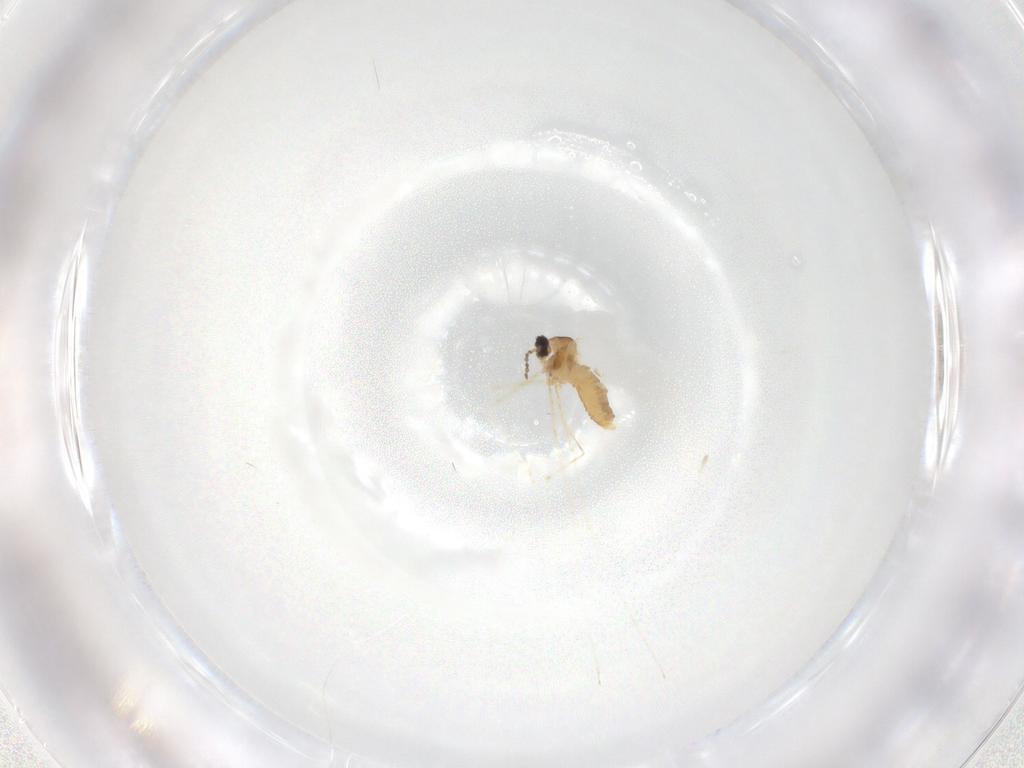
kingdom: Animalia
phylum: Arthropoda
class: Insecta
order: Diptera
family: Cecidomyiidae
